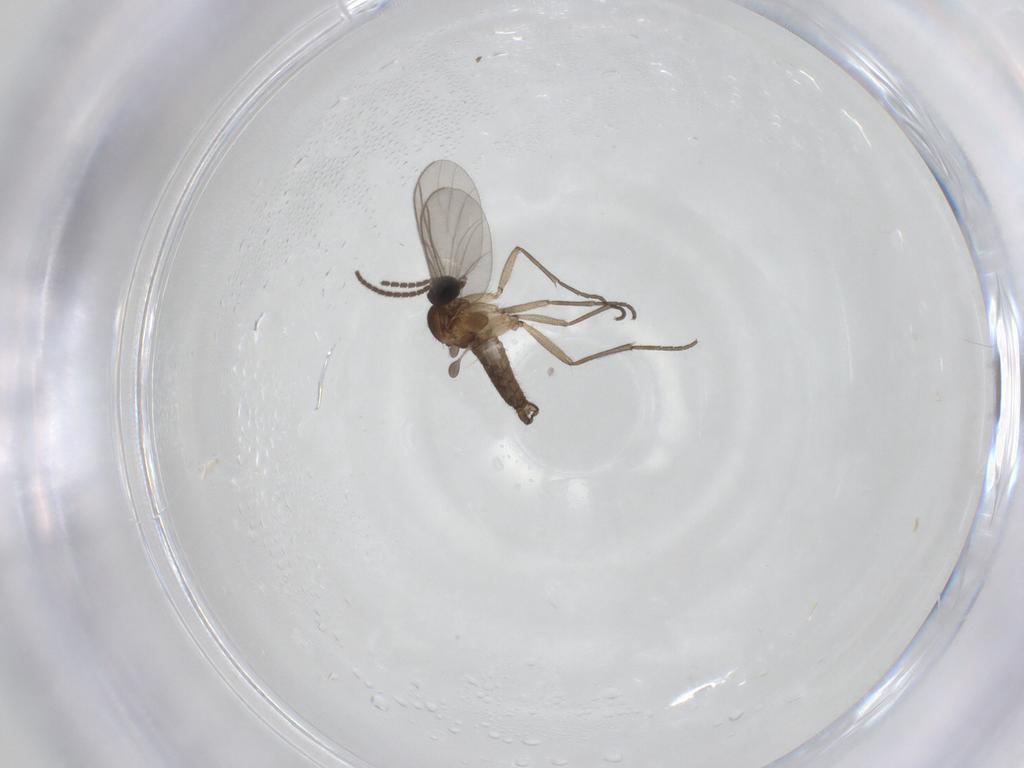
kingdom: Animalia
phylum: Arthropoda
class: Insecta
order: Diptera
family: Sciaridae
